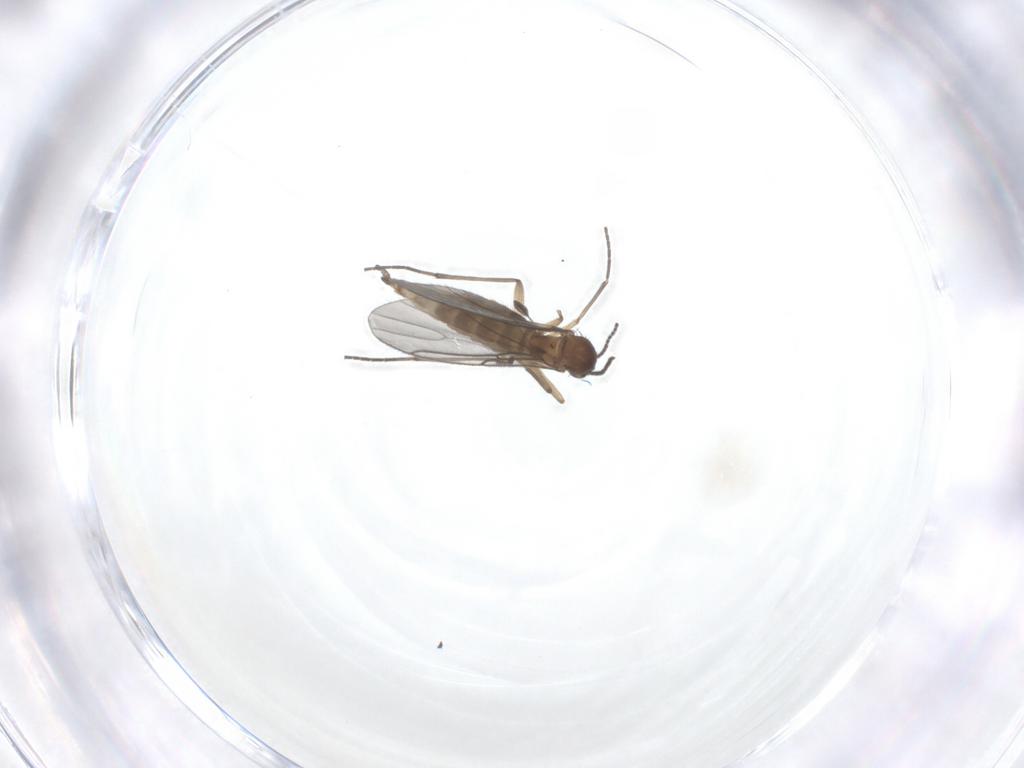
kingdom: Animalia
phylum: Arthropoda
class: Insecta
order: Diptera
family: Sciaridae
